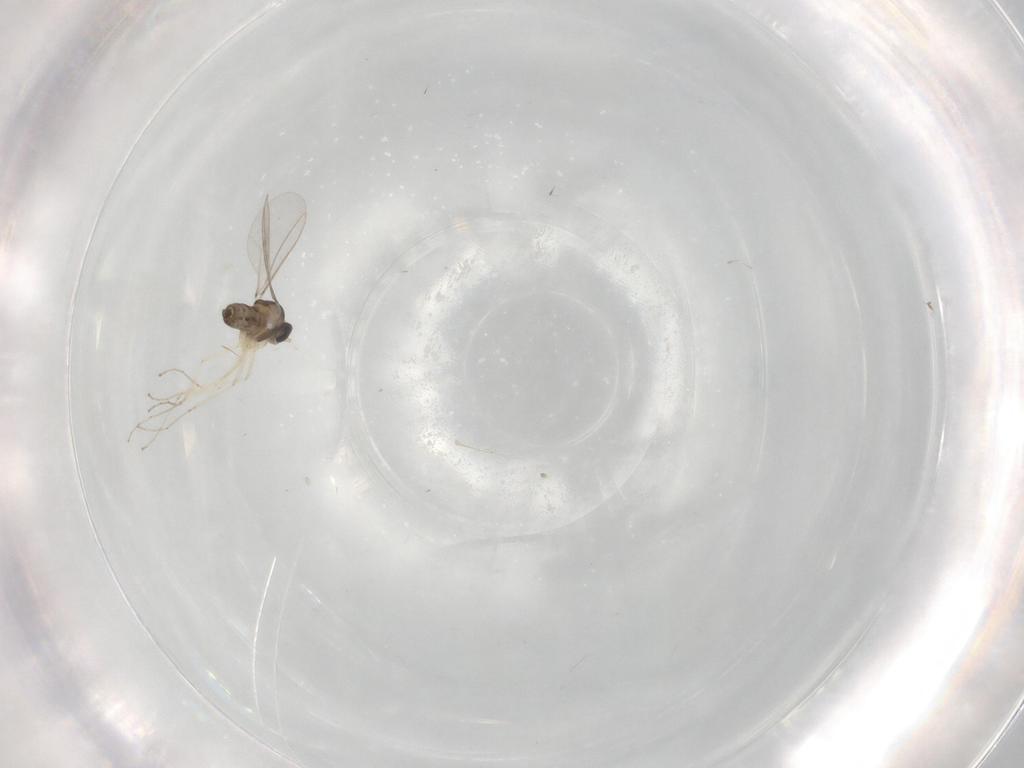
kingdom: Animalia
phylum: Arthropoda
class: Insecta
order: Diptera
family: Cecidomyiidae
